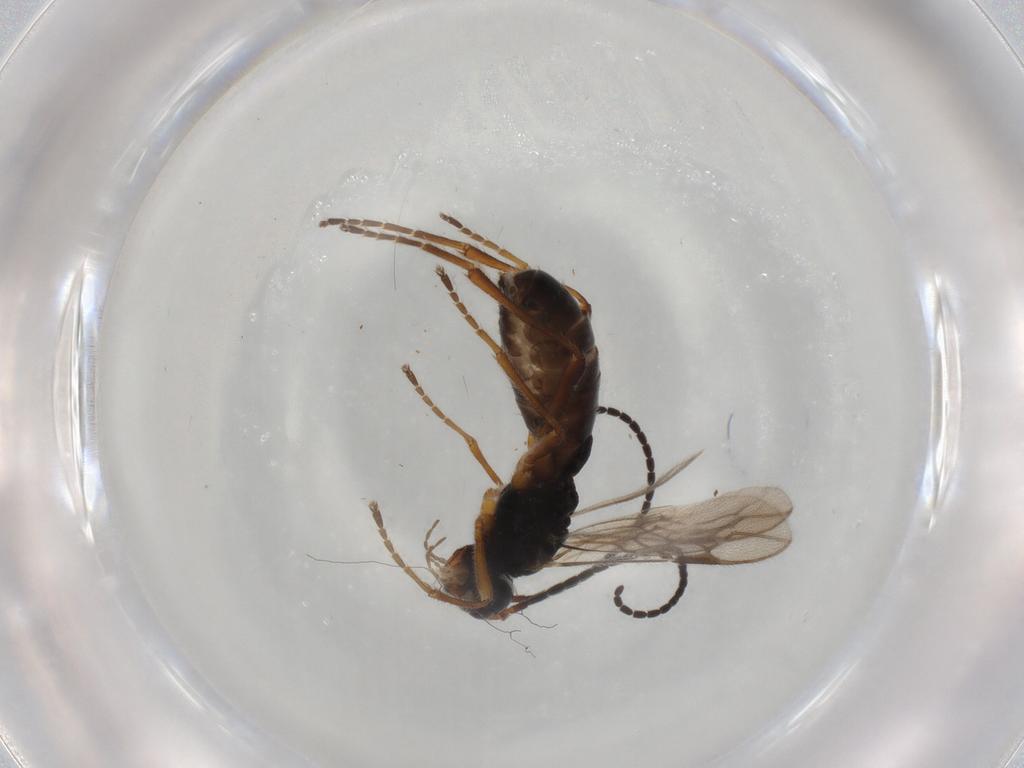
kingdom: Animalia
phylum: Arthropoda
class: Insecta
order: Hymenoptera
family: Braconidae
